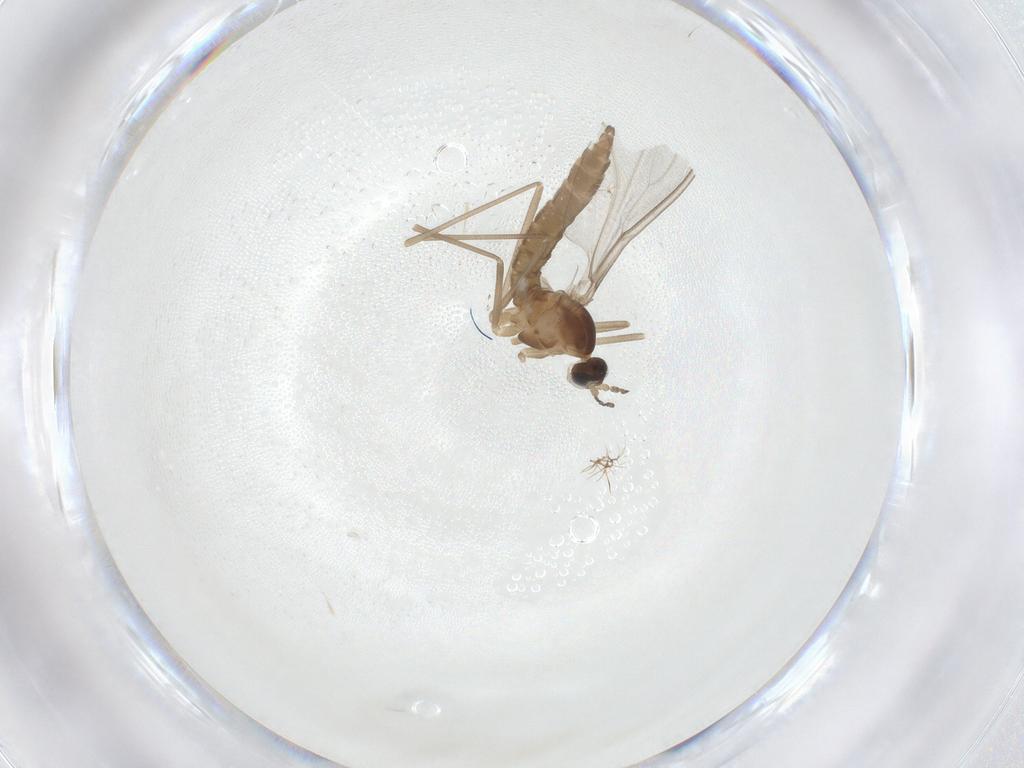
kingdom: Animalia
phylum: Arthropoda
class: Insecta
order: Diptera
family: Cecidomyiidae
